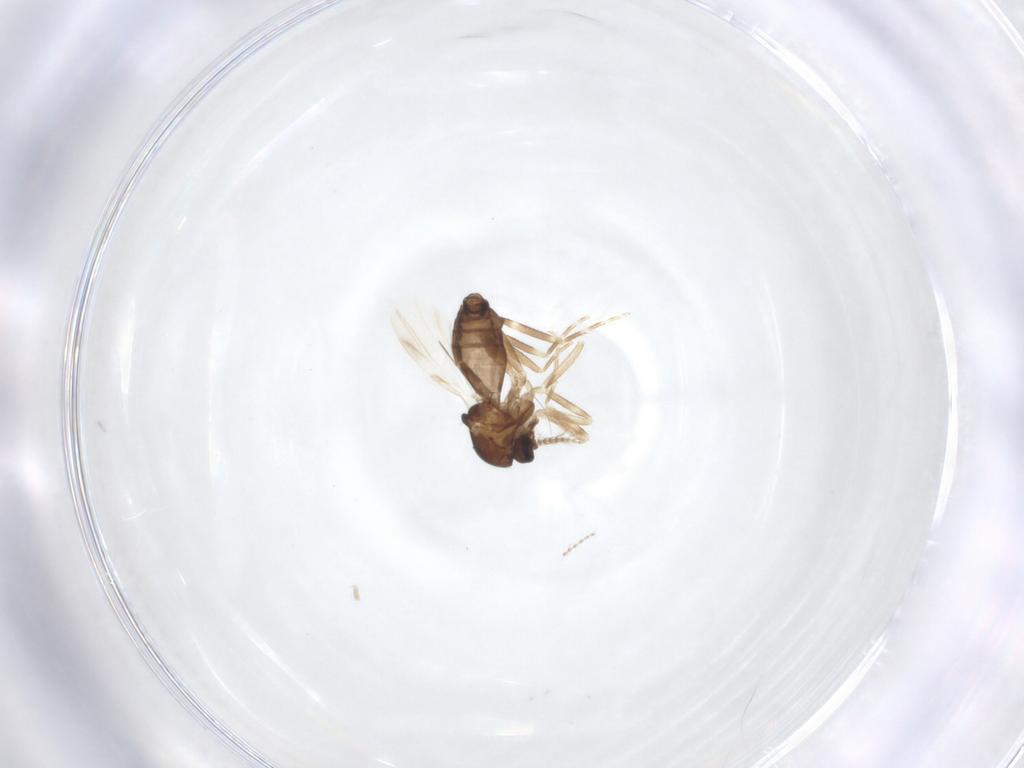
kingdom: Animalia
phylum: Arthropoda
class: Insecta
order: Diptera
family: Ceratopogonidae
